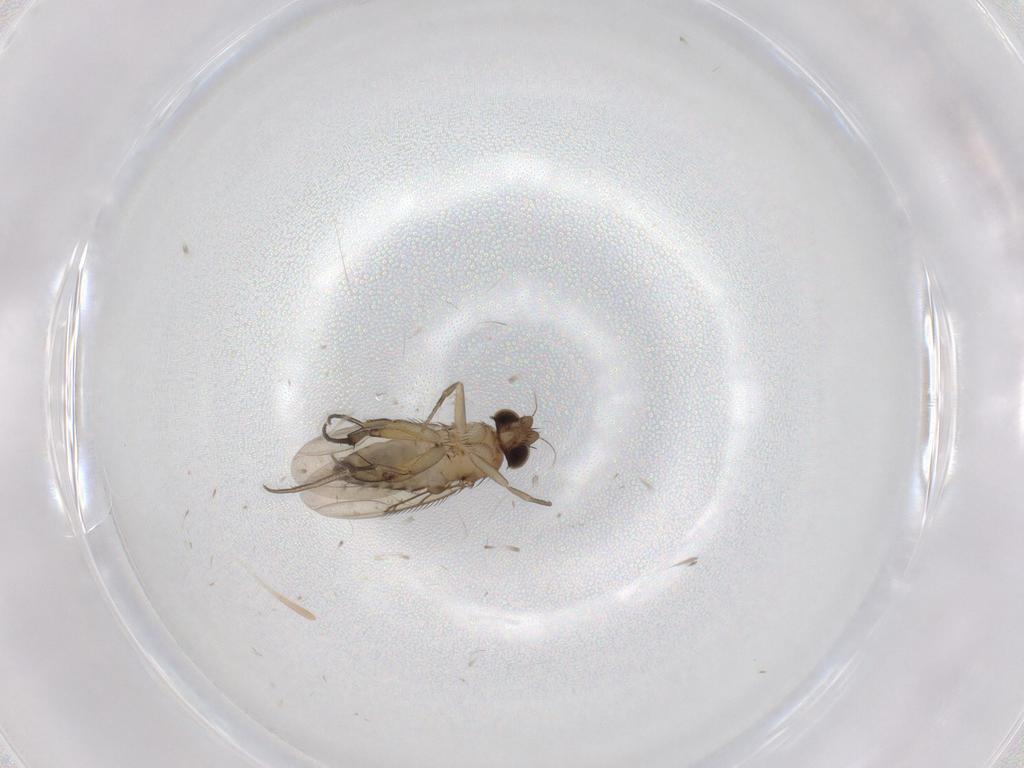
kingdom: Animalia
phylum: Arthropoda
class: Insecta
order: Diptera
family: Phoridae
